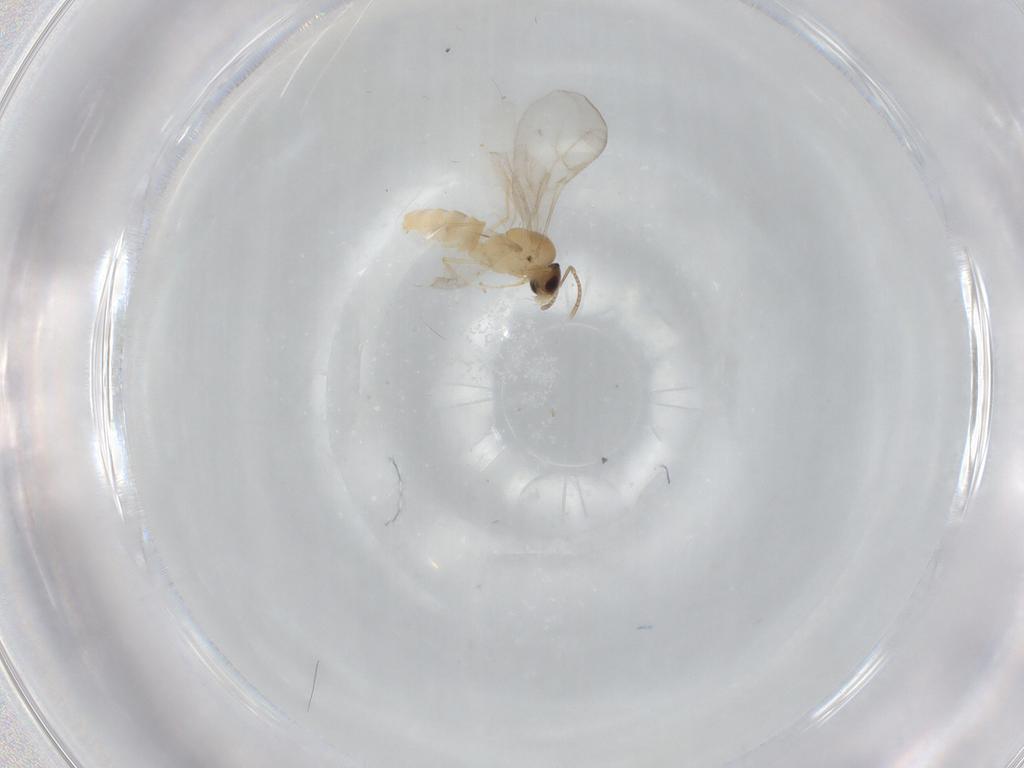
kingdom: Animalia
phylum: Arthropoda
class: Insecta
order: Hymenoptera
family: Formicidae
